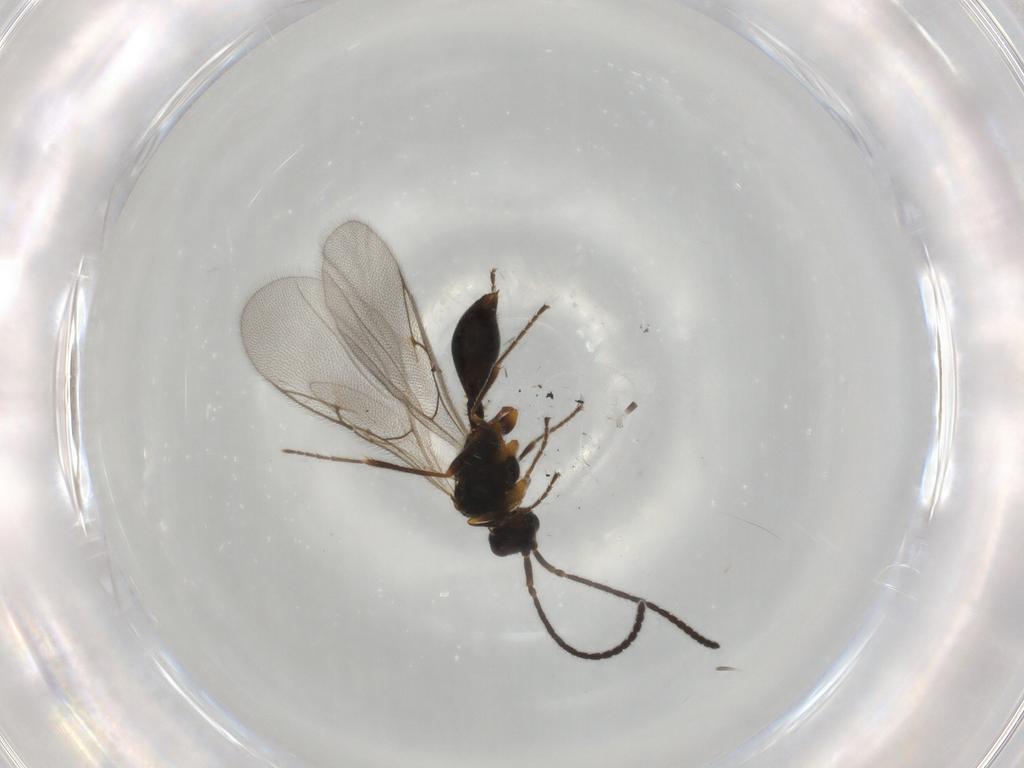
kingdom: Animalia
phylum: Arthropoda
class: Insecta
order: Hymenoptera
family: Diapriidae
